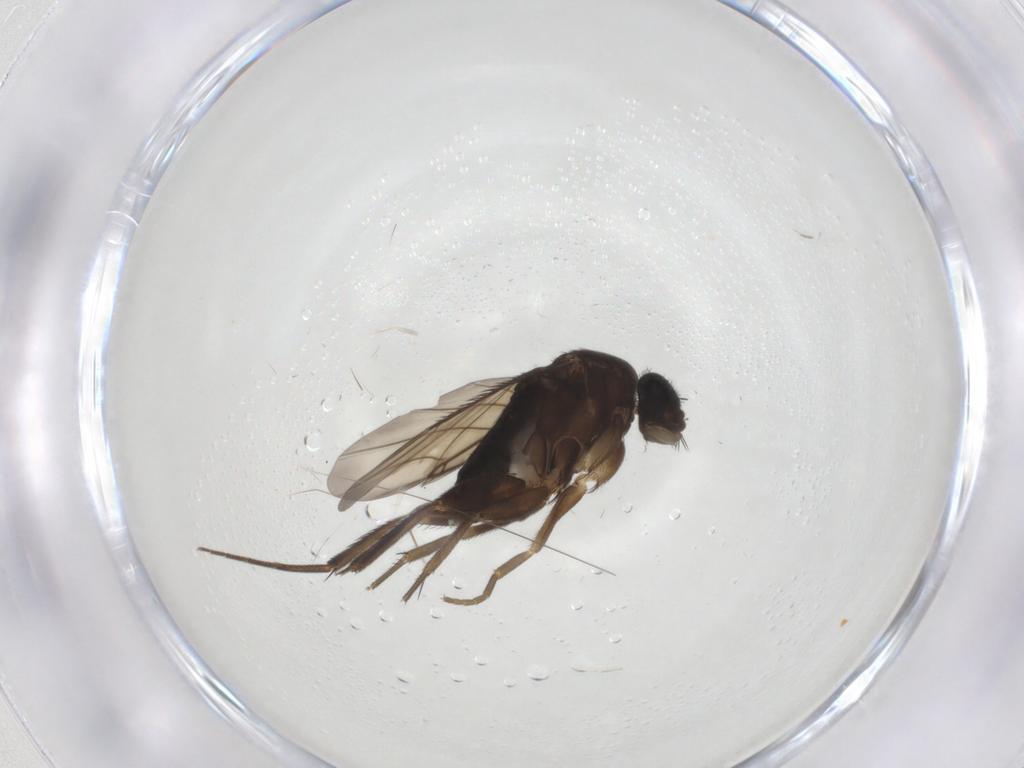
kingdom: Animalia
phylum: Arthropoda
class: Insecta
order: Diptera
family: Phoridae
